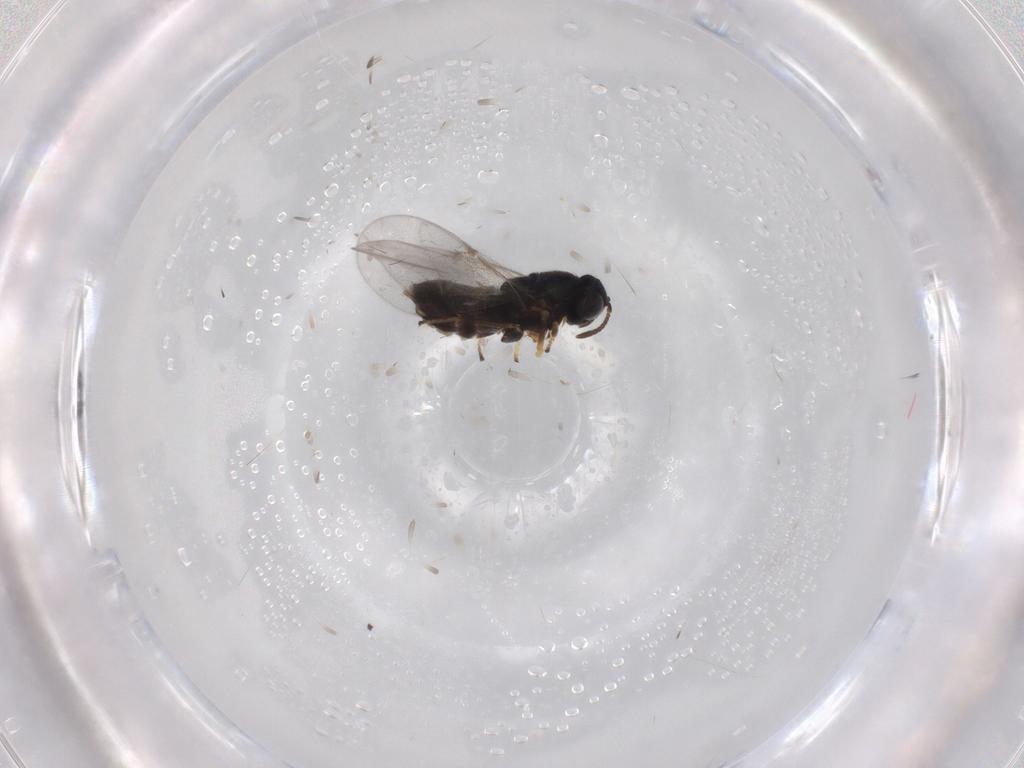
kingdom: Animalia
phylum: Arthropoda
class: Insecta
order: Hymenoptera
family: Encyrtidae
